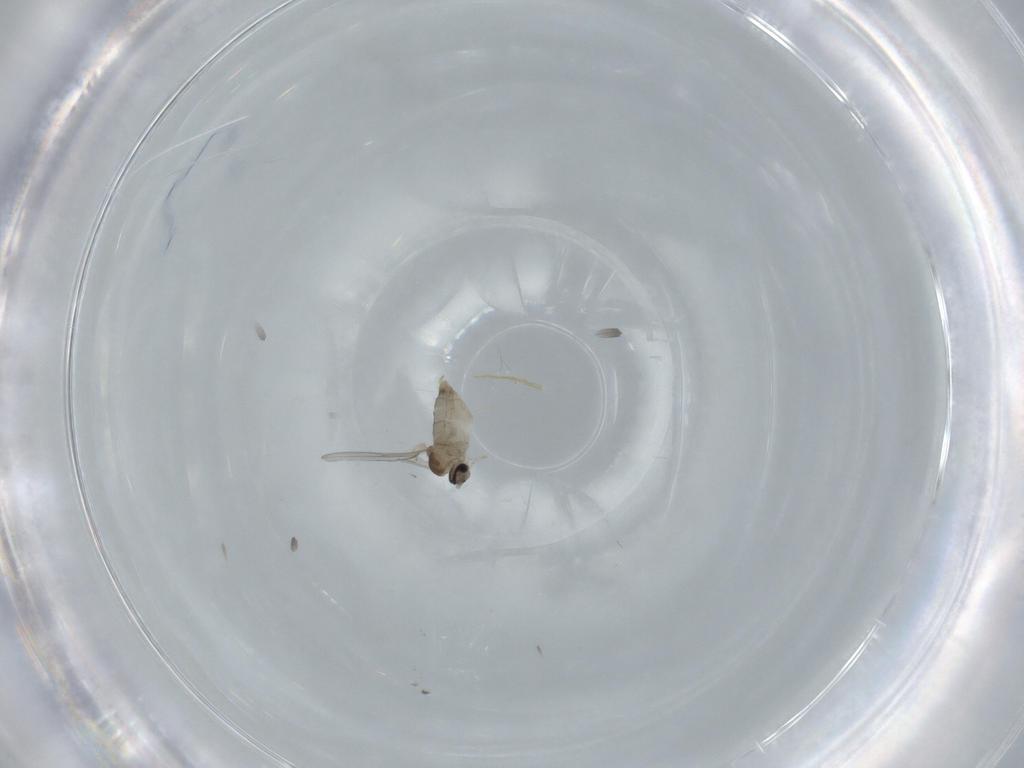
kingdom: Animalia
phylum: Arthropoda
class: Insecta
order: Diptera
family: Cecidomyiidae
